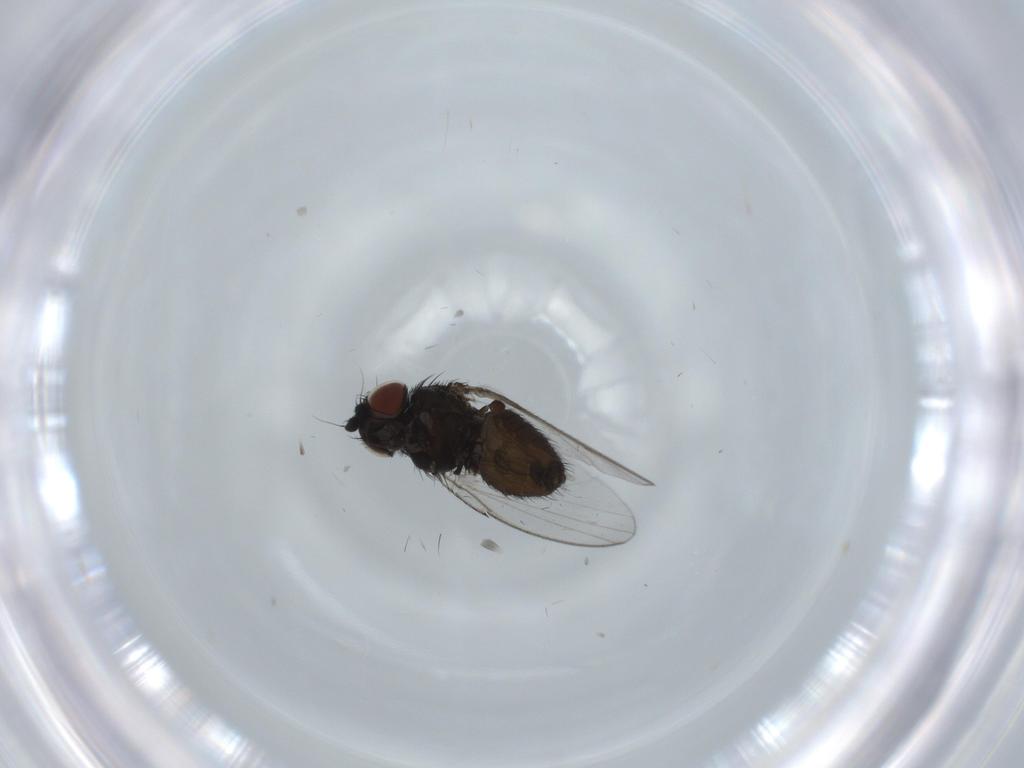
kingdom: Animalia
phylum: Arthropoda
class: Insecta
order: Diptera
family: Milichiidae
